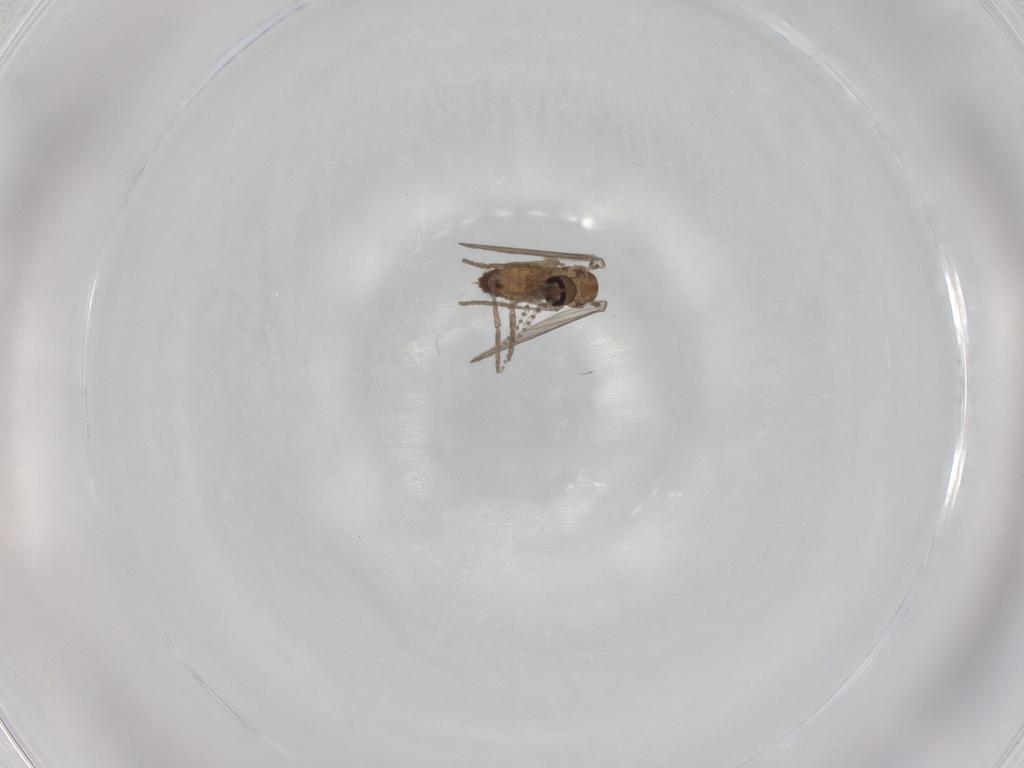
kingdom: Animalia
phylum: Arthropoda
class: Insecta
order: Diptera
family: Psychodidae
